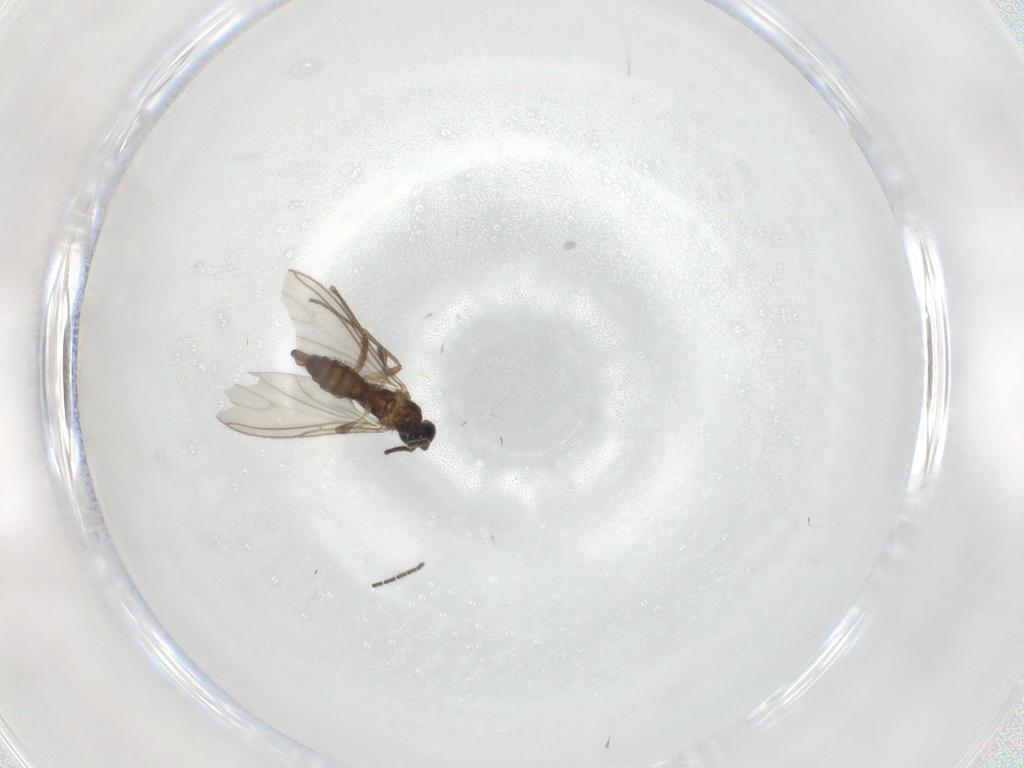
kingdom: Animalia
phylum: Arthropoda
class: Insecta
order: Diptera
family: Sciaridae
